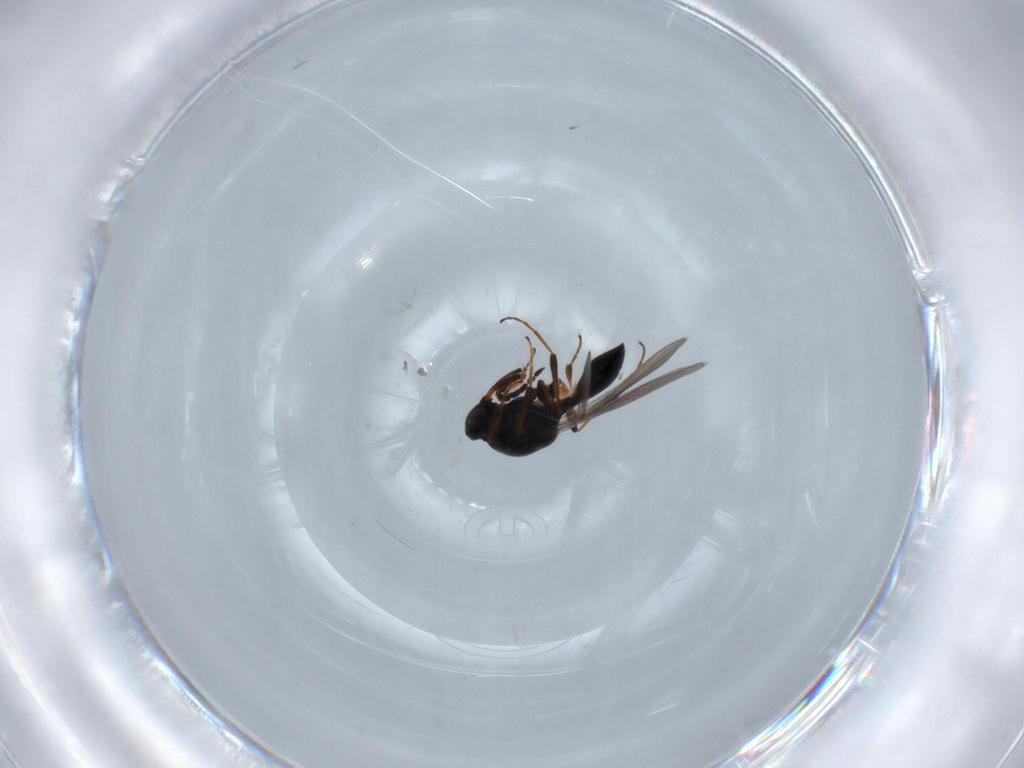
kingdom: Animalia
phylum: Arthropoda
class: Insecta
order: Hymenoptera
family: Platygastridae
